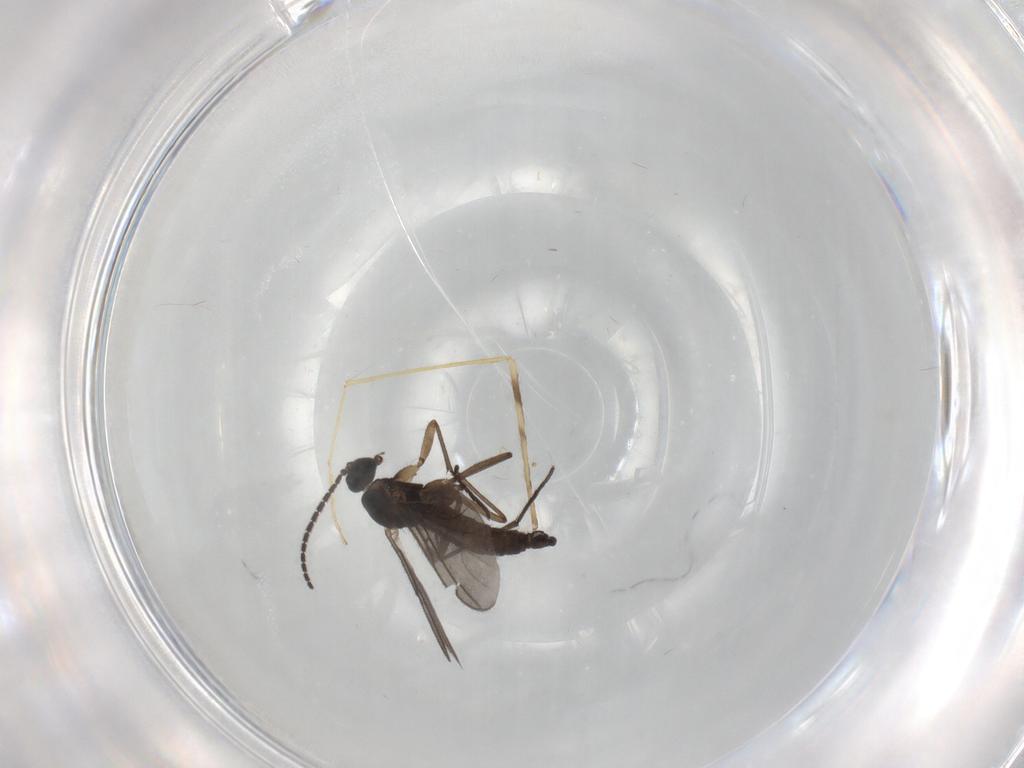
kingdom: Animalia
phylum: Arthropoda
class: Insecta
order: Diptera
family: Limoniidae
